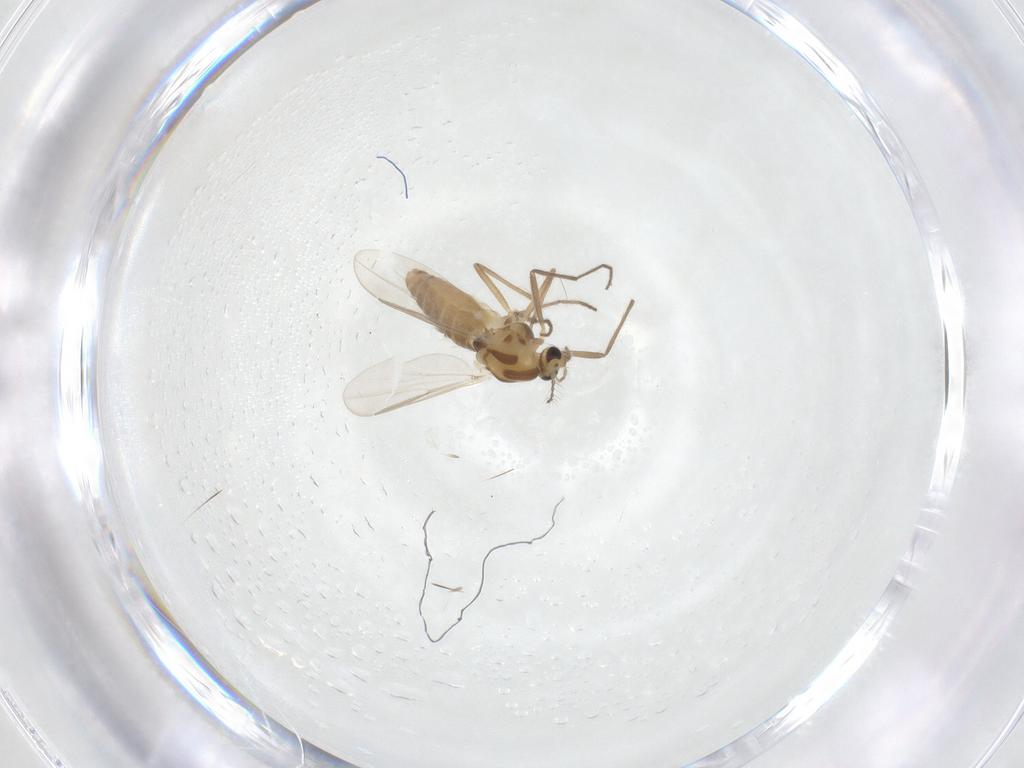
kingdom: Animalia
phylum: Arthropoda
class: Insecta
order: Diptera
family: Chironomidae
